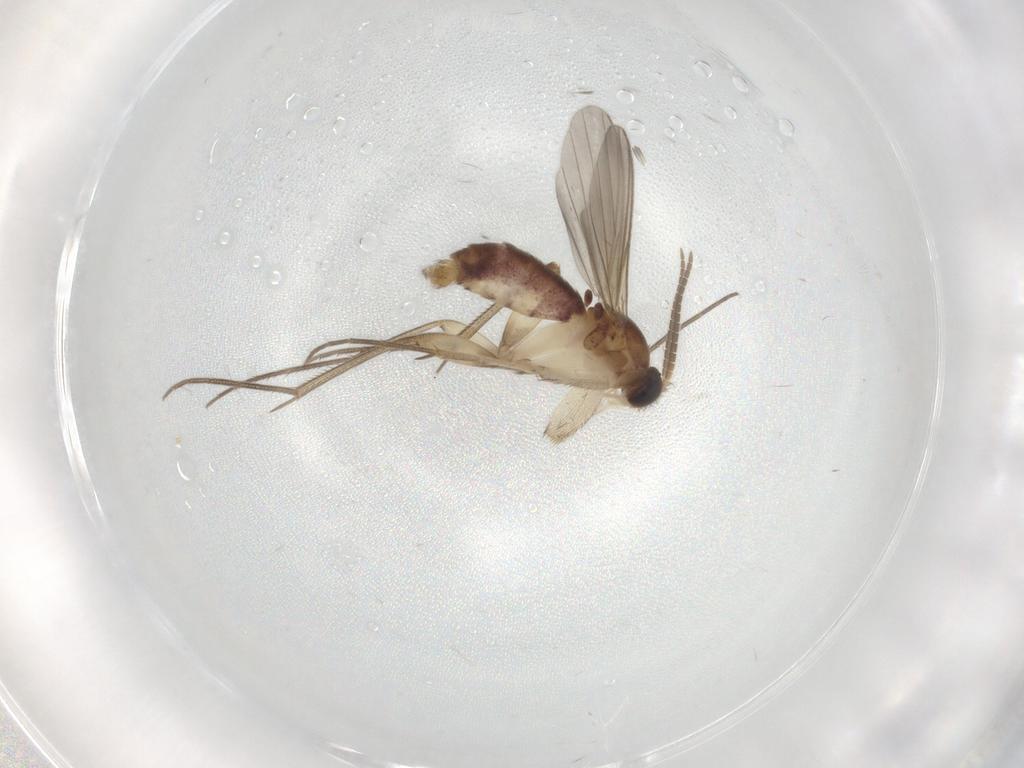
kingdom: Animalia
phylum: Arthropoda
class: Insecta
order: Diptera
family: Mycetophilidae
